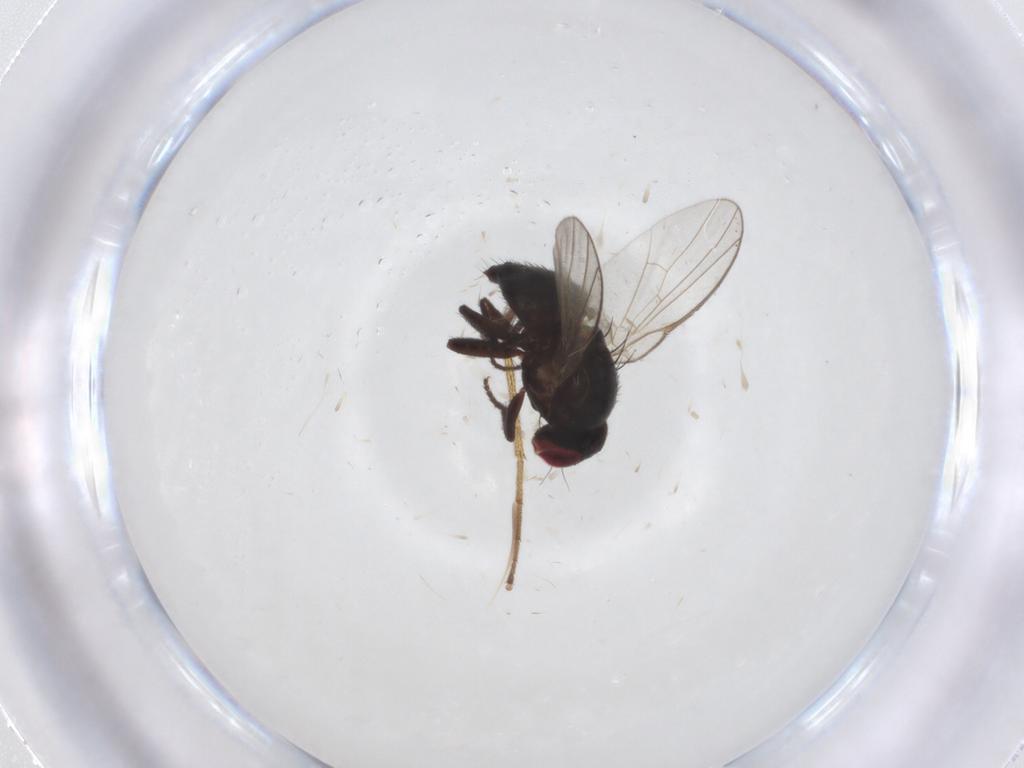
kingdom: Animalia
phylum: Arthropoda
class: Insecta
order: Diptera
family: Agromyzidae
